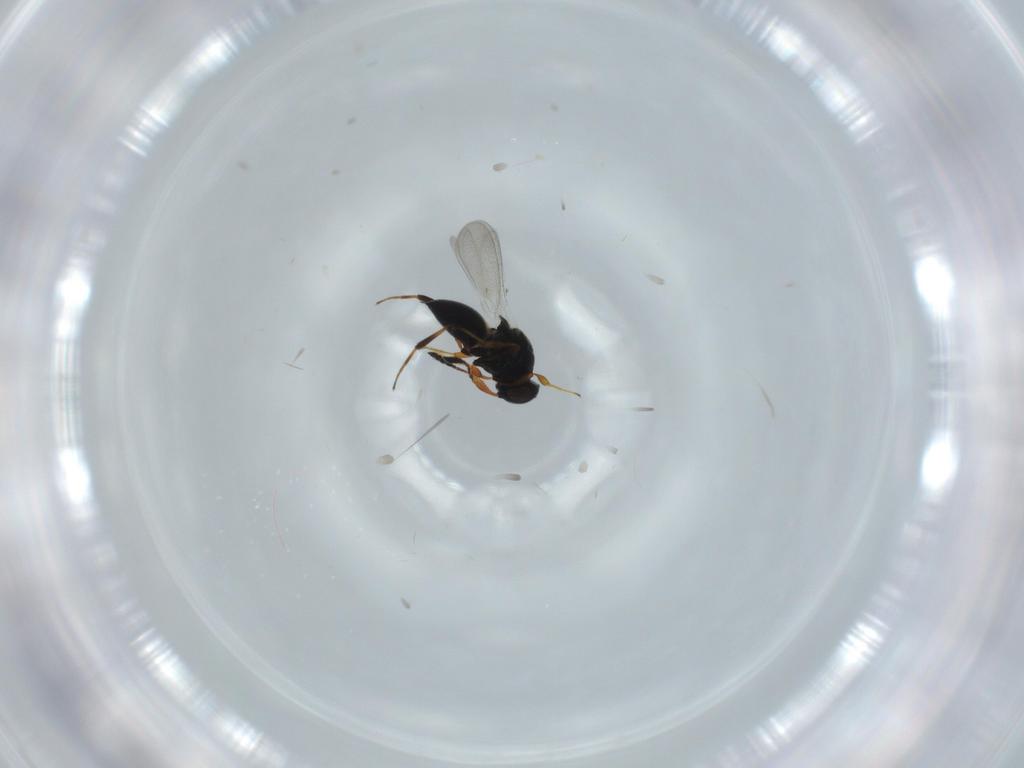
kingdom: Animalia
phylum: Arthropoda
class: Insecta
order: Hymenoptera
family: Platygastridae
